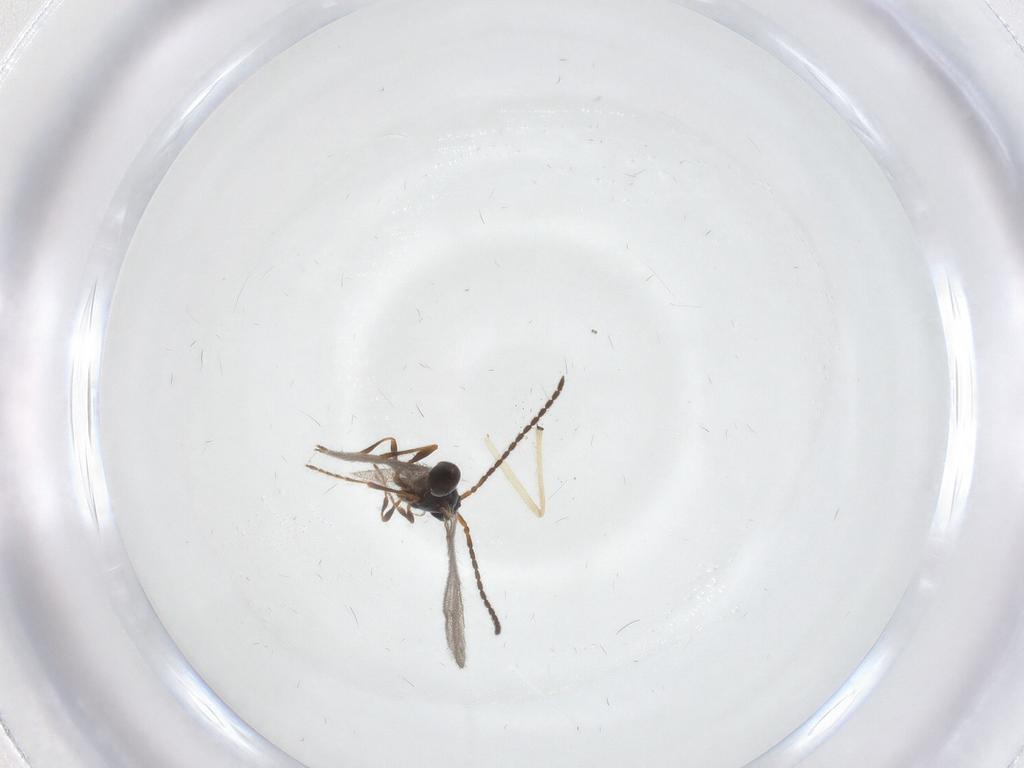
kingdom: Animalia
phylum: Arthropoda
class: Insecta
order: Diptera
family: Chironomidae
